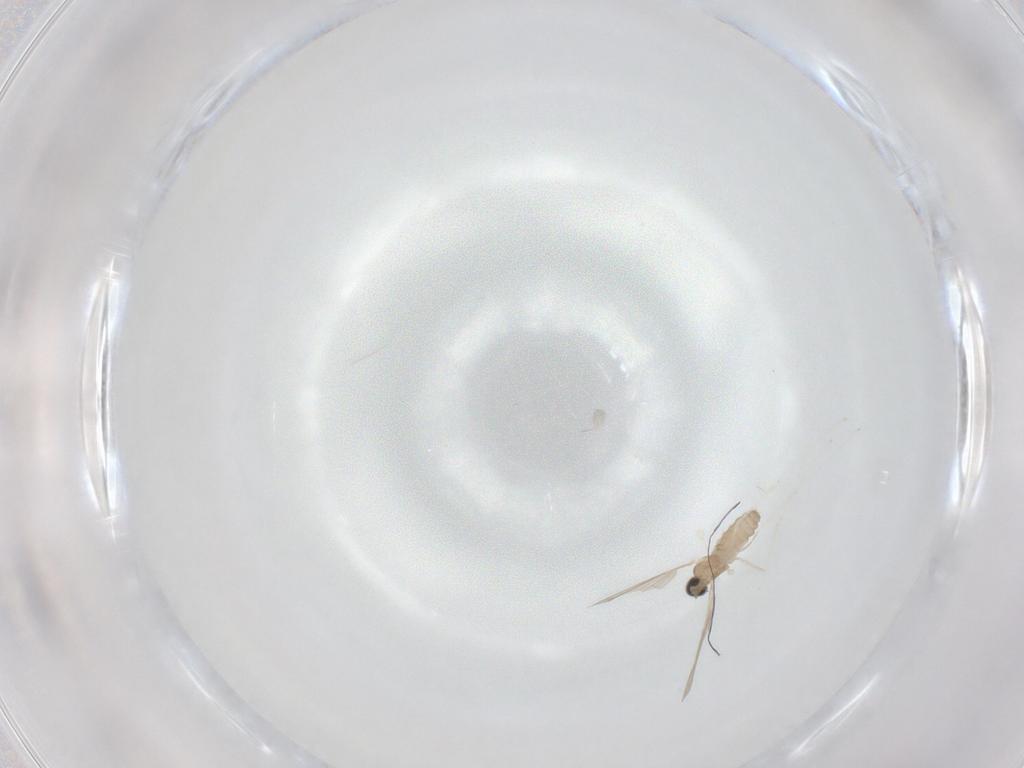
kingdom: Animalia
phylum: Arthropoda
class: Insecta
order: Diptera
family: Cecidomyiidae
